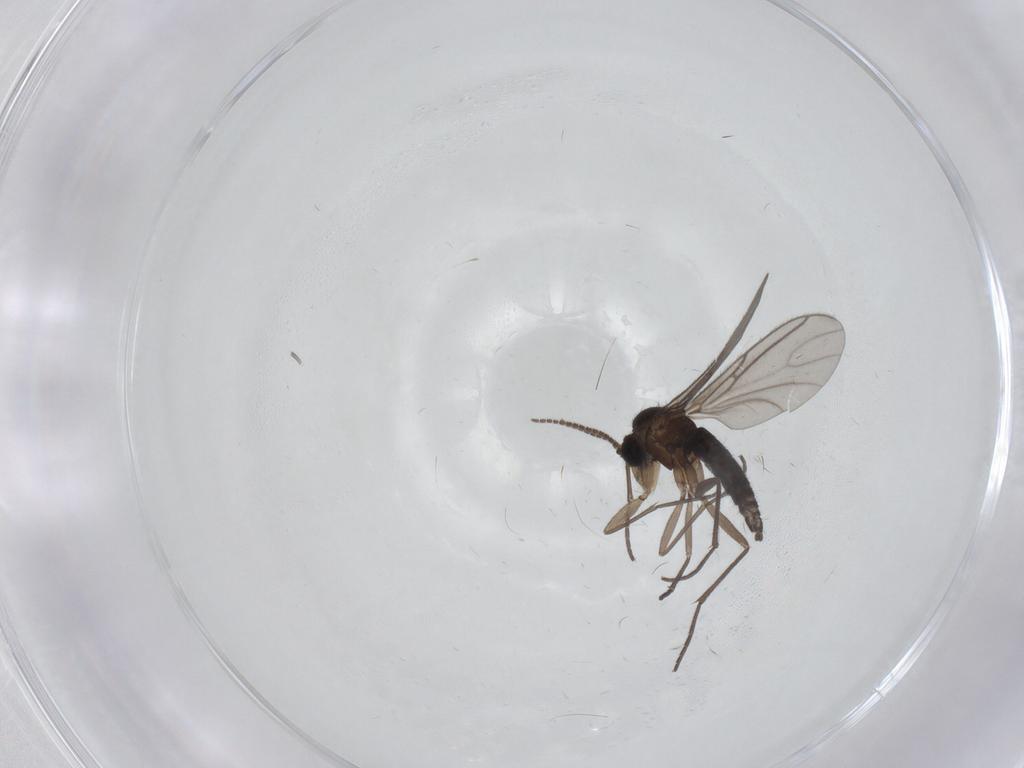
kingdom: Animalia
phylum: Arthropoda
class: Insecta
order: Diptera
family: Sciaridae
